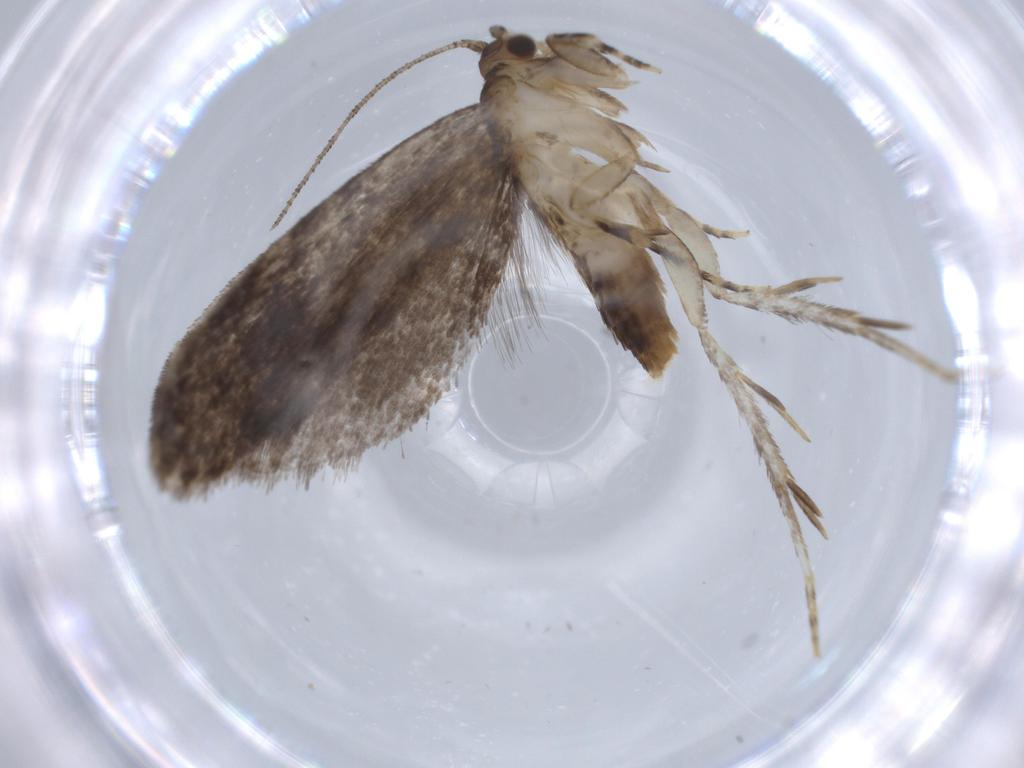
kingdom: Animalia
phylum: Arthropoda
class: Insecta
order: Lepidoptera
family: Tineidae
